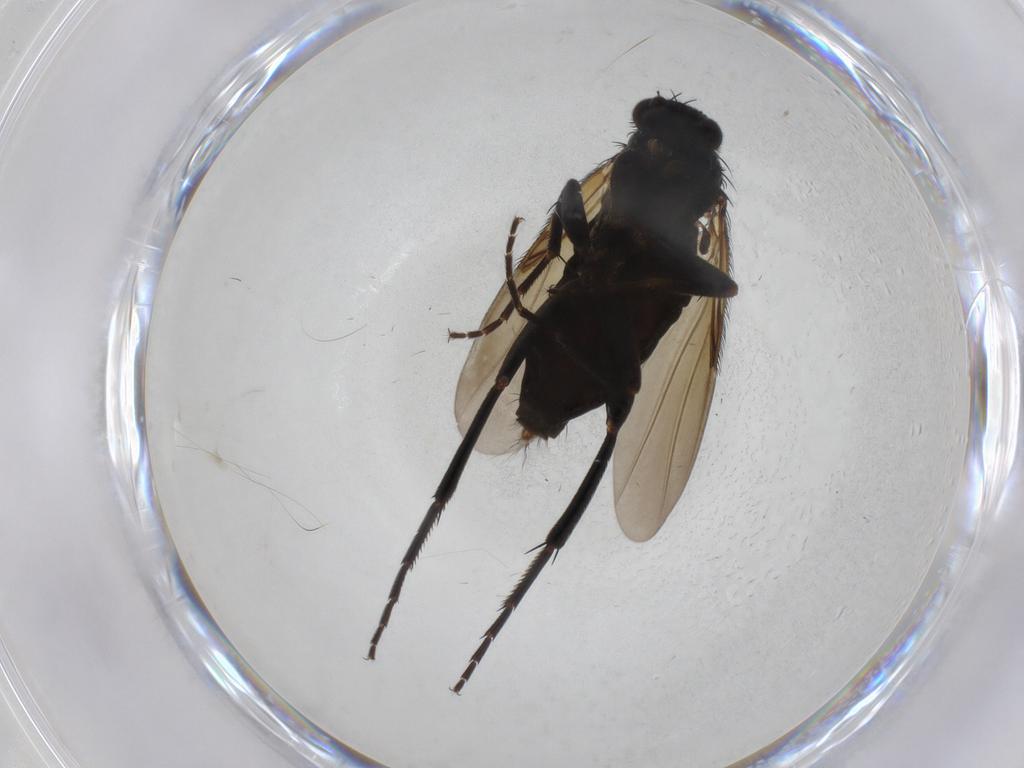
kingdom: Animalia
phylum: Arthropoda
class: Insecta
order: Diptera
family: Phoridae
